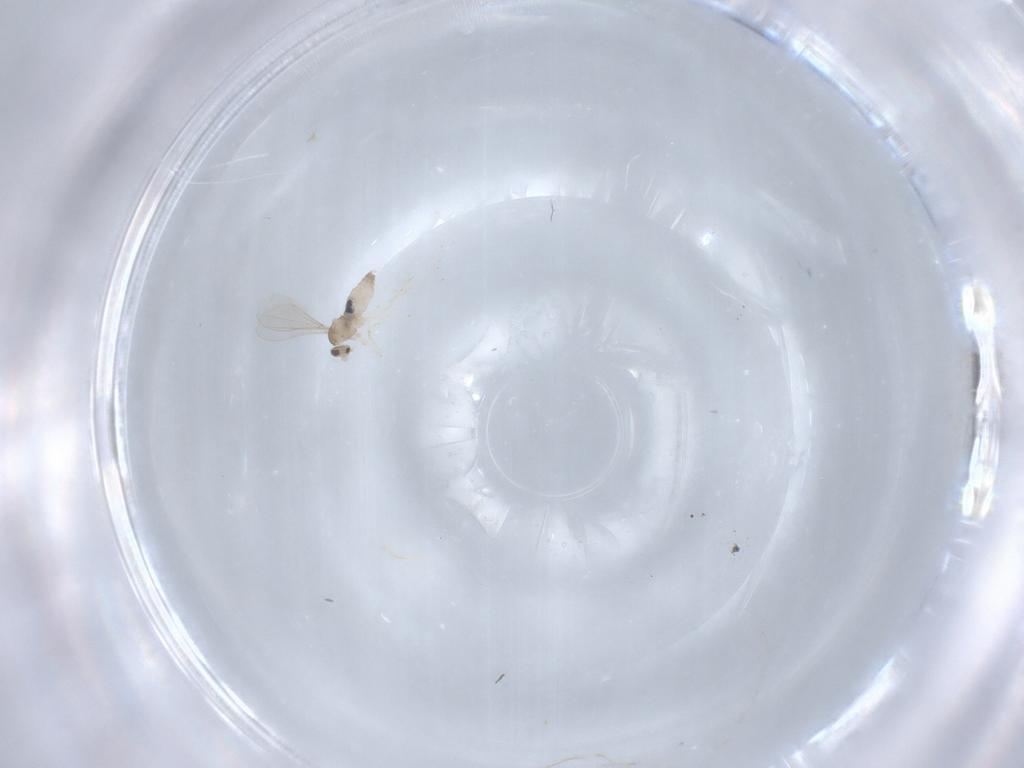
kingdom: Animalia
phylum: Arthropoda
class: Insecta
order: Diptera
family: Cecidomyiidae
